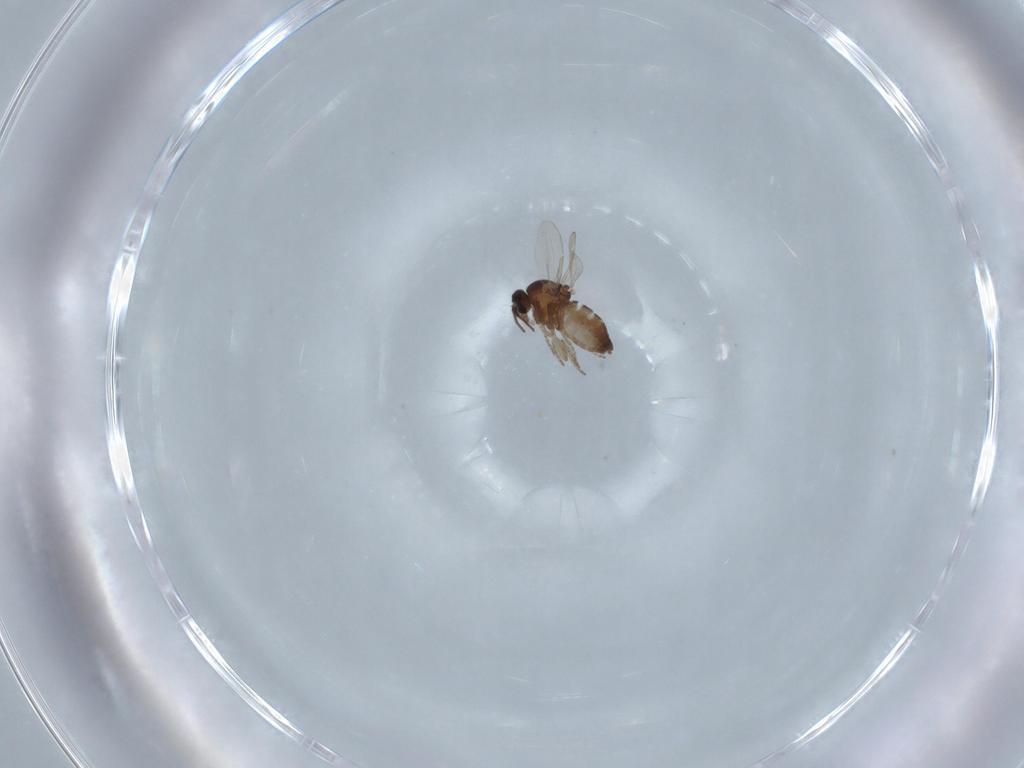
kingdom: Animalia
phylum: Arthropoda
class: Insecta
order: Diptera
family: Ceratopogonidae
